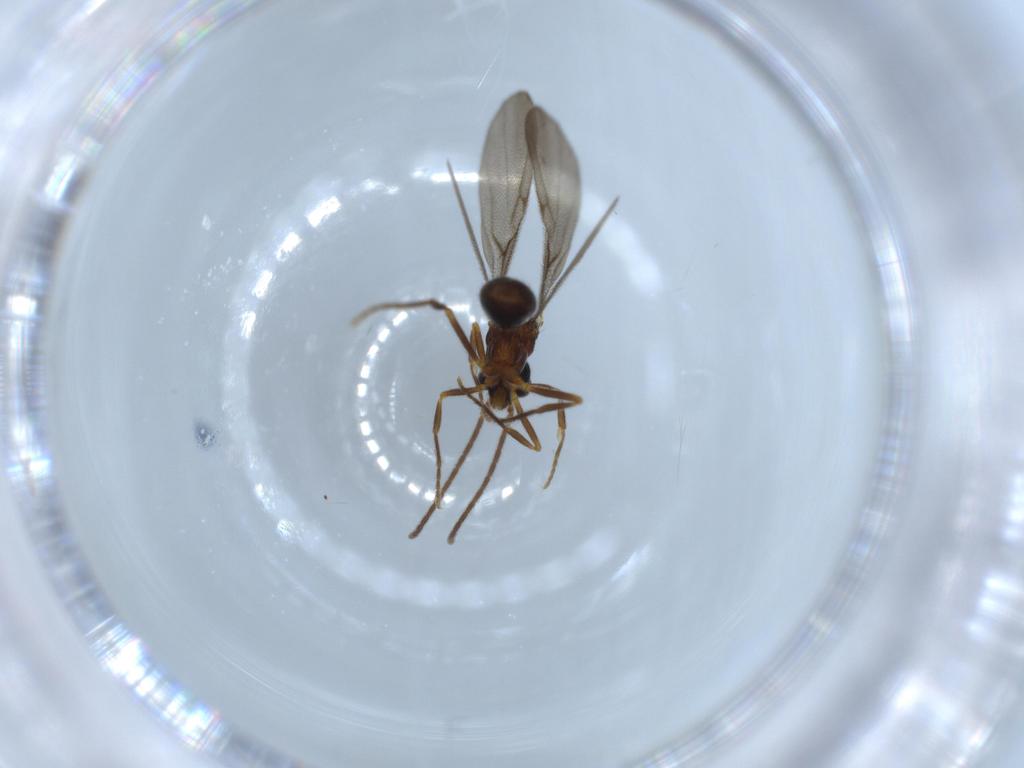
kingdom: Animalia
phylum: Arthropoda
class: Insecta
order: Hymenoptera
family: Formicidae
